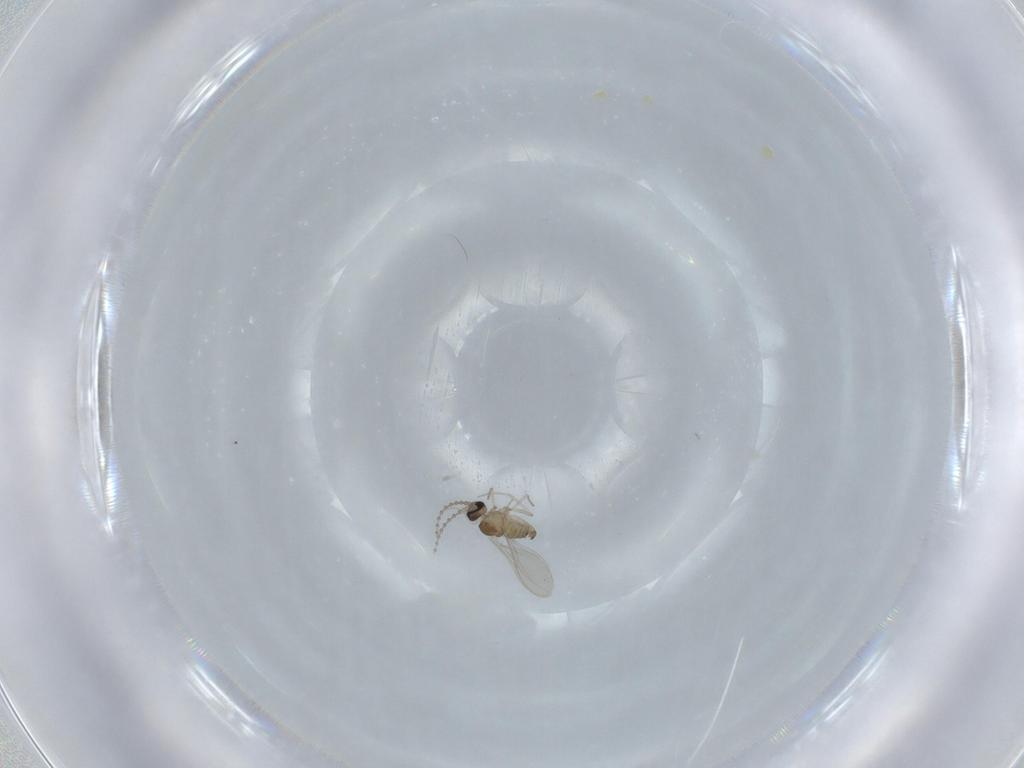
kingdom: Animalia
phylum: Arthropoda
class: Insecta
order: Diptera
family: Cecidomyiidae
